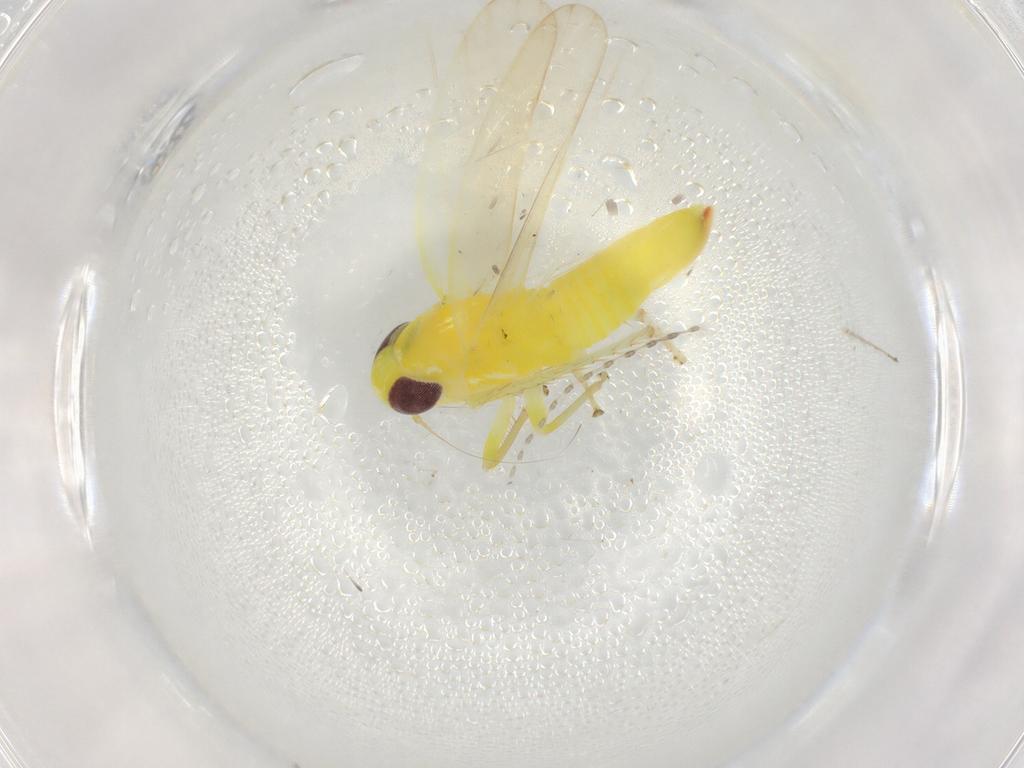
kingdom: Animalia
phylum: Arthropoda
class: Insecta
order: Hemiptera
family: Cicadellidae
